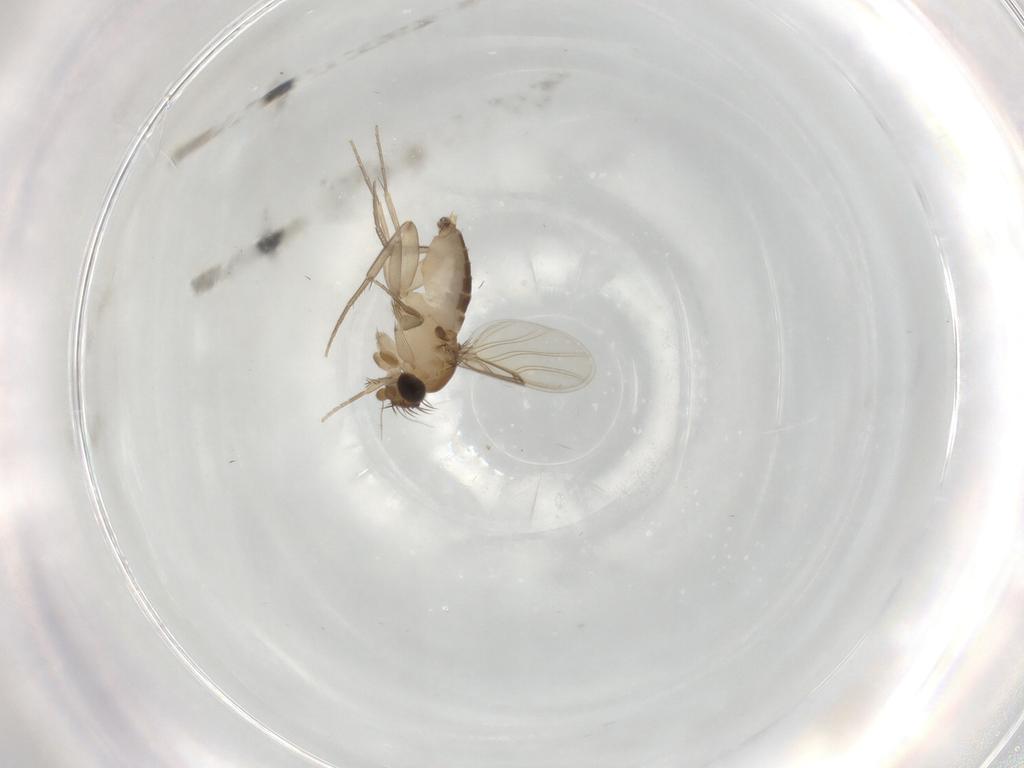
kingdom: Animalia
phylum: Arthropoda
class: Insecta
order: Diptera
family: Phoridae
